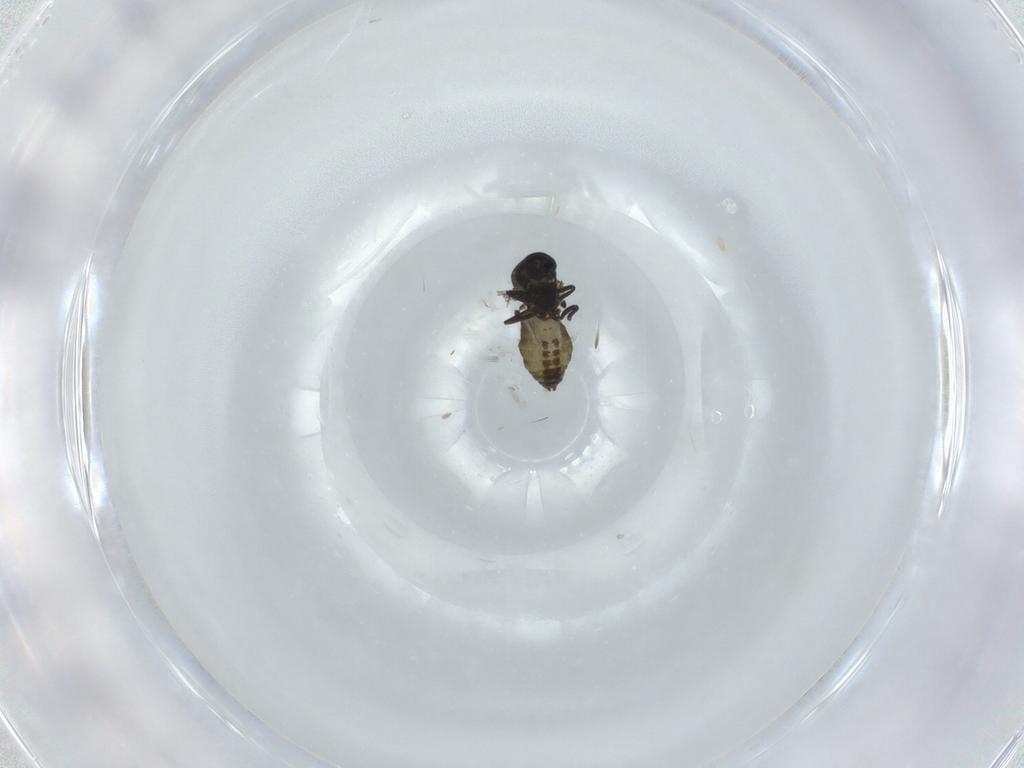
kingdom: Animalia
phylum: Arthropoda
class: Insecta
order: Diptera
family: Ceratopogonidae
